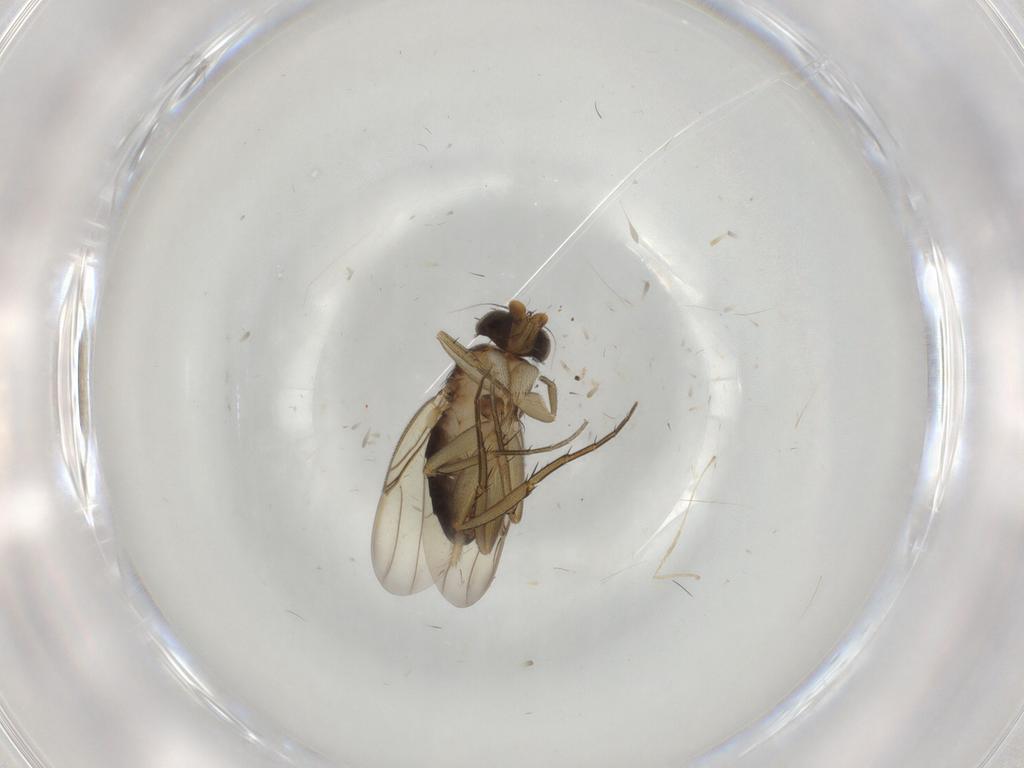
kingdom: Animalia
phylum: Arthropoda
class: Insecta
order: Diptera
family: Phoridae
